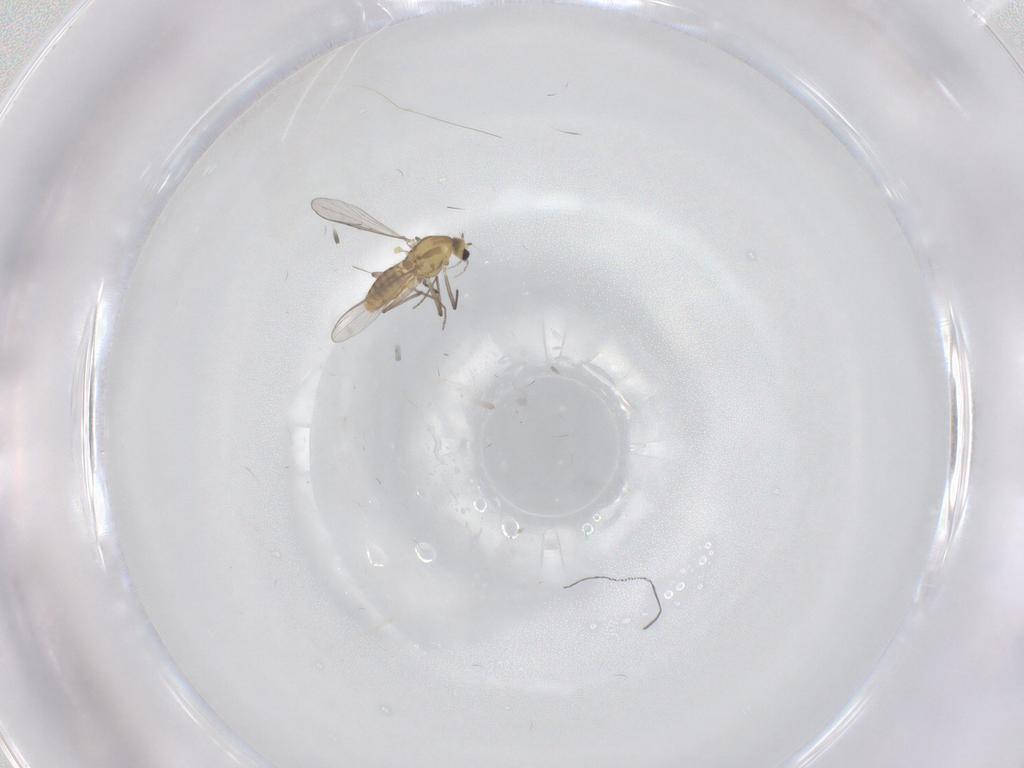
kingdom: Animalia
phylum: Arthropoda
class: Insecta
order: Diptera
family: Chironomidae
